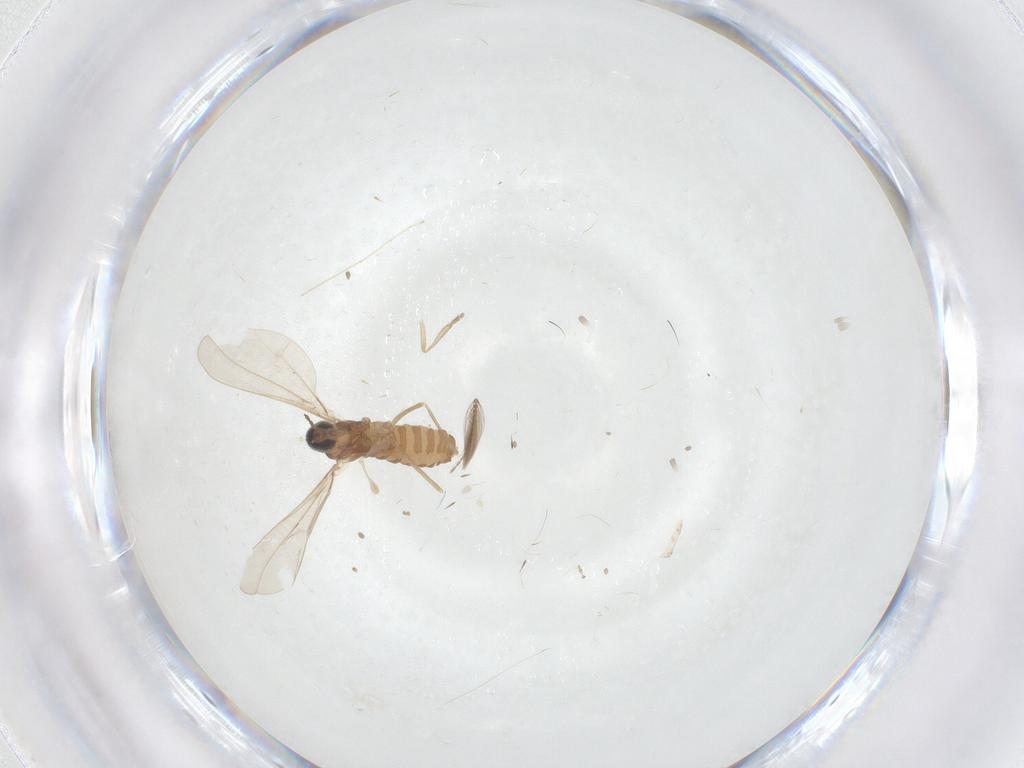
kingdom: Animalia
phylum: Arthropoda
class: Insecta
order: Diptera
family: Cecidomyiidae
